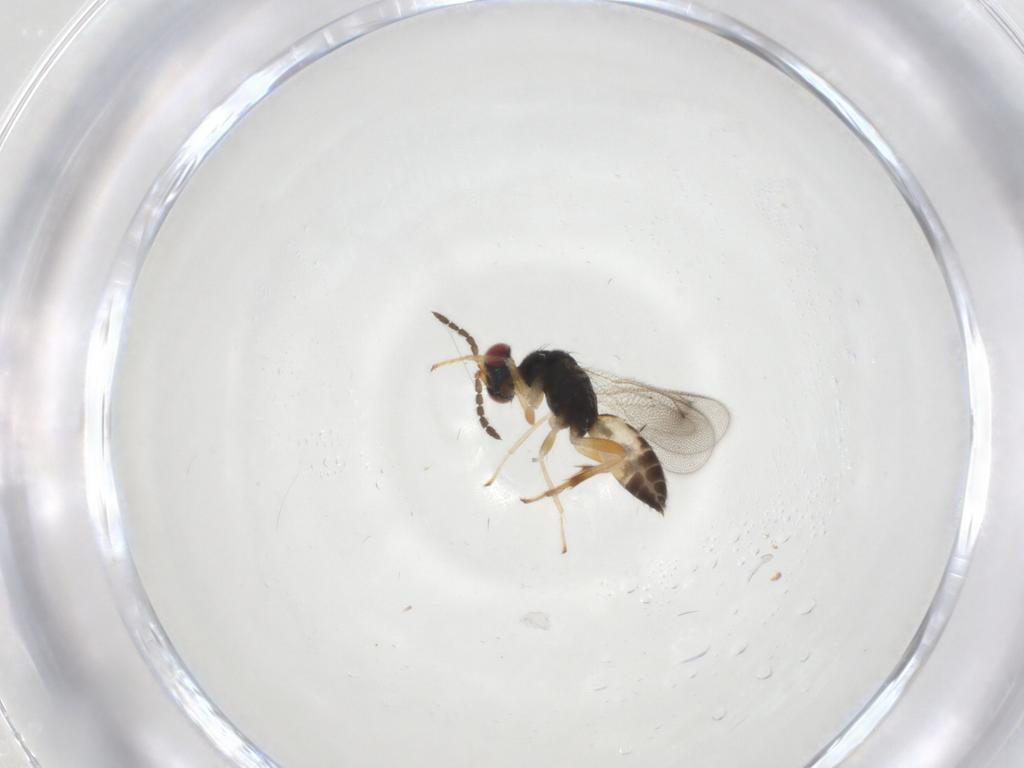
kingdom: Animalia
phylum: Arthropoda
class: Insecta
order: Hymenoptera
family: Eulophidae
